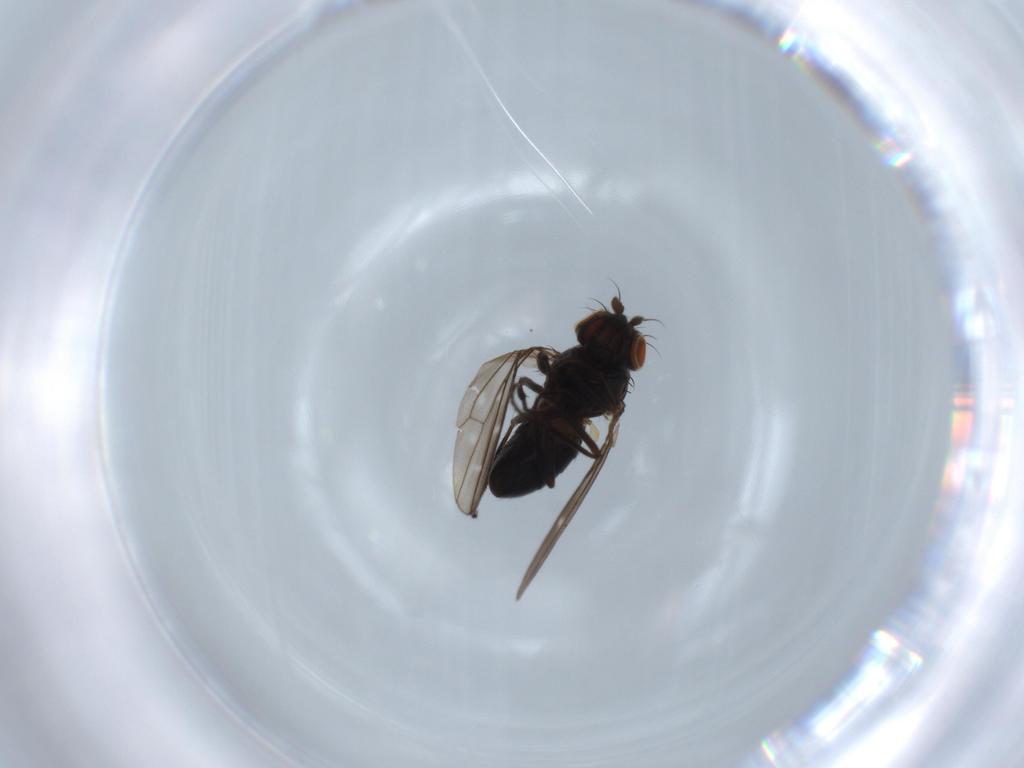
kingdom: Animalia
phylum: Arthropoda
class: Insecta
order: Diptera
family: Ephydridae
